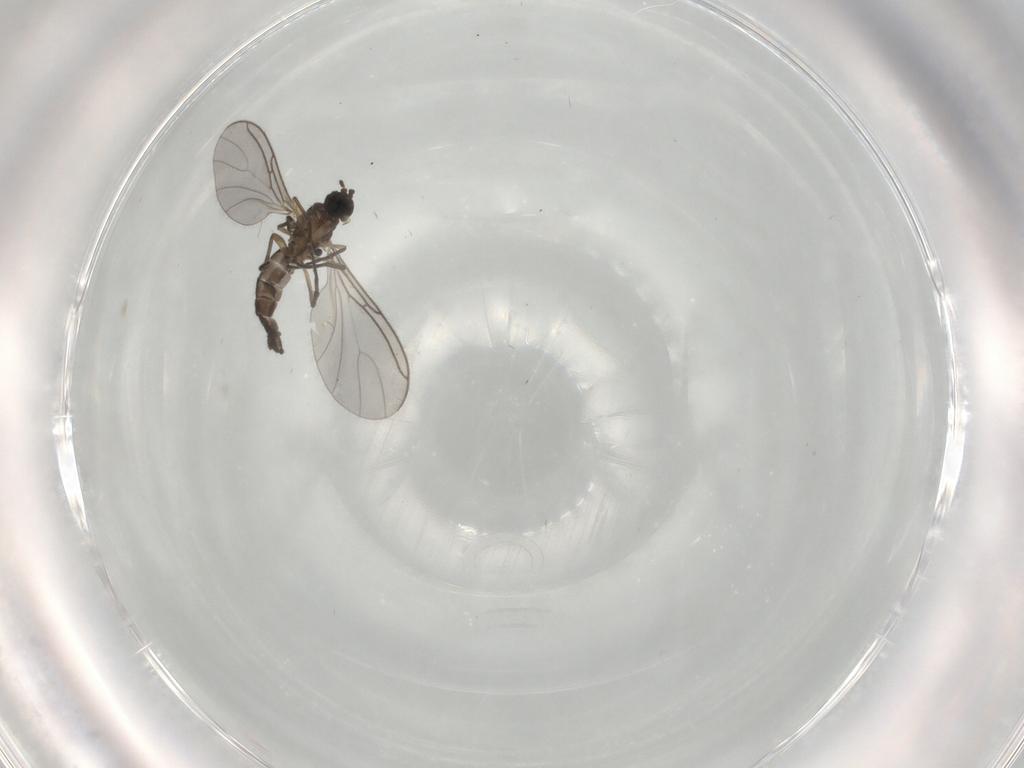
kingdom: Animalia
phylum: Arthropoda
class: Insecta
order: Diptera
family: Sciaridae
